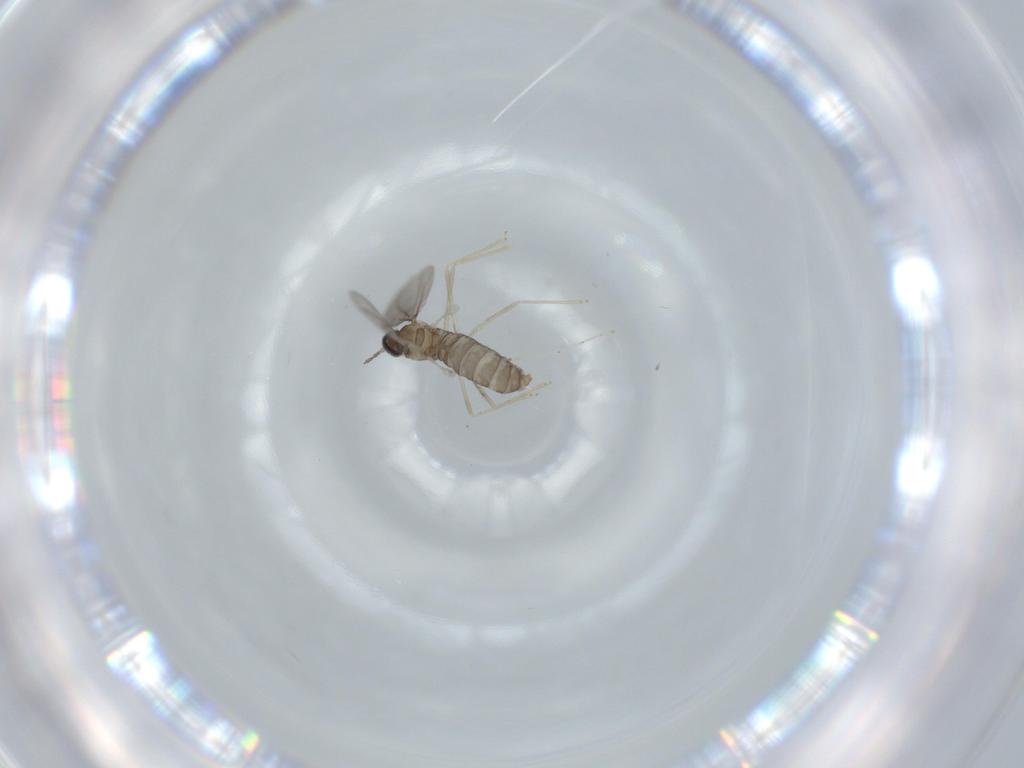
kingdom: Animalia
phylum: Arthropoda
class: Insecta
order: Diptera
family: Cecidomyiidae
